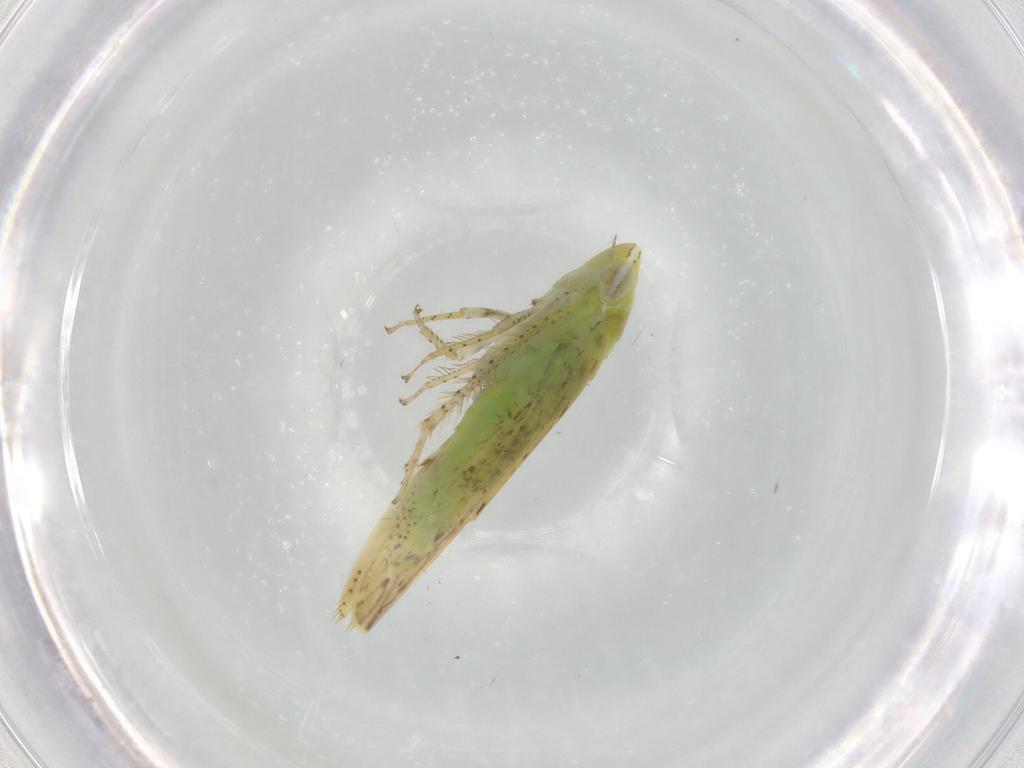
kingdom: Animalia
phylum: Arthropoda
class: Insecta
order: Hemiptera
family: Cicadellidae
